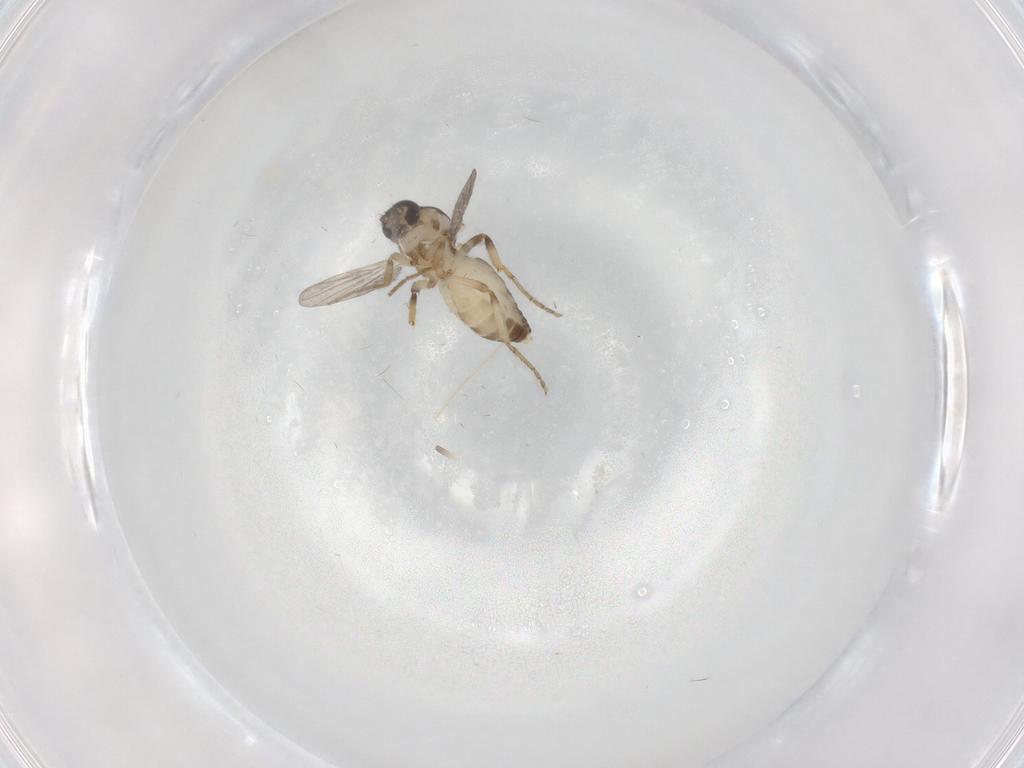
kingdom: Animalia
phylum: Arthropoda
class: Insecta
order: Diptera
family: Ceratopogonidae
